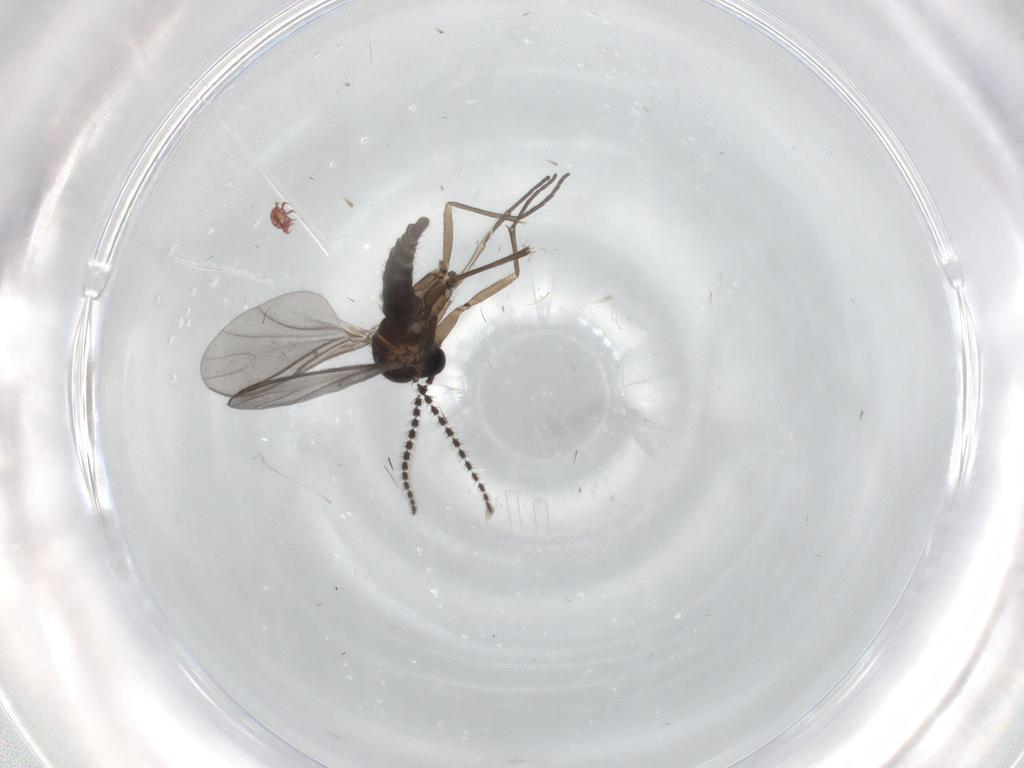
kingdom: Animalia
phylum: Arthropoda
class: Insecta
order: Diptera
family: Sciaridae
